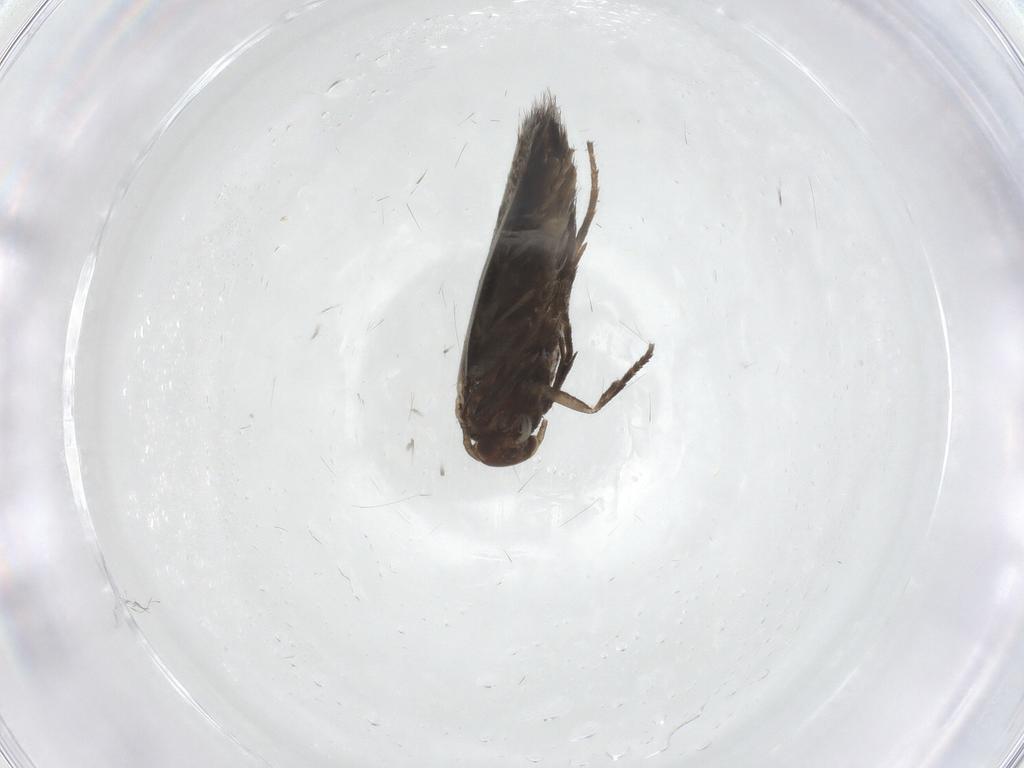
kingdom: Animalia
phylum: Arthropoda
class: Insecta
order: Lepidoptera
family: Elachistidae
